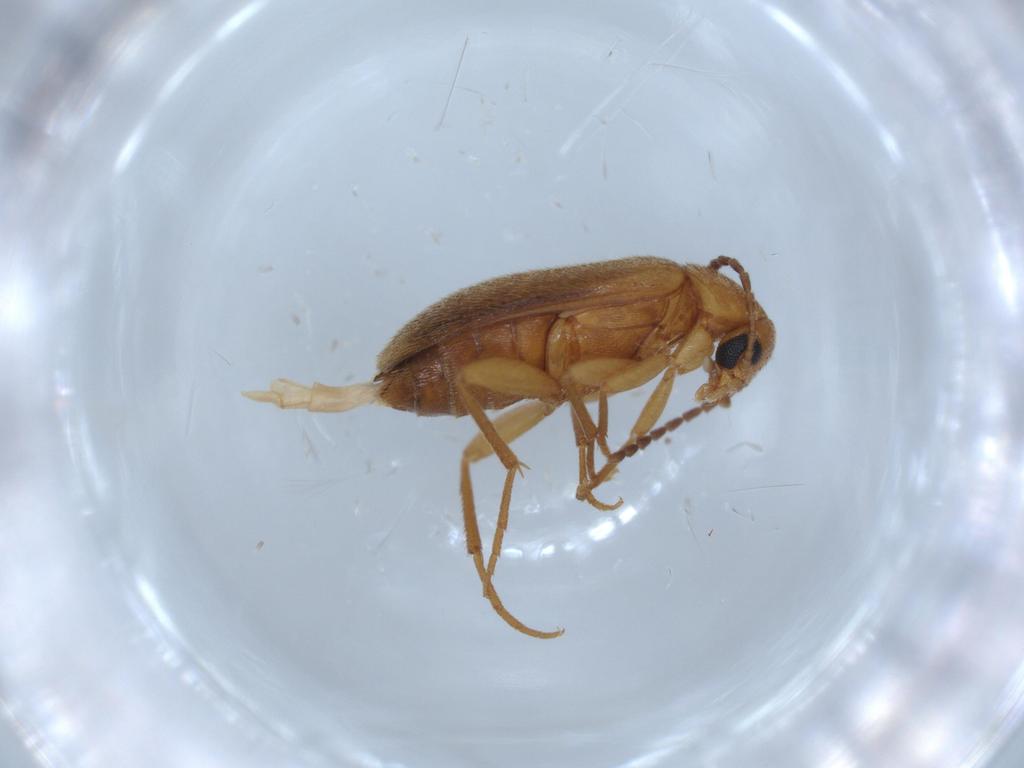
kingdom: Animalia
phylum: Arthropoda
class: Insecta
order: Coleoptera
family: Scraptiidae
